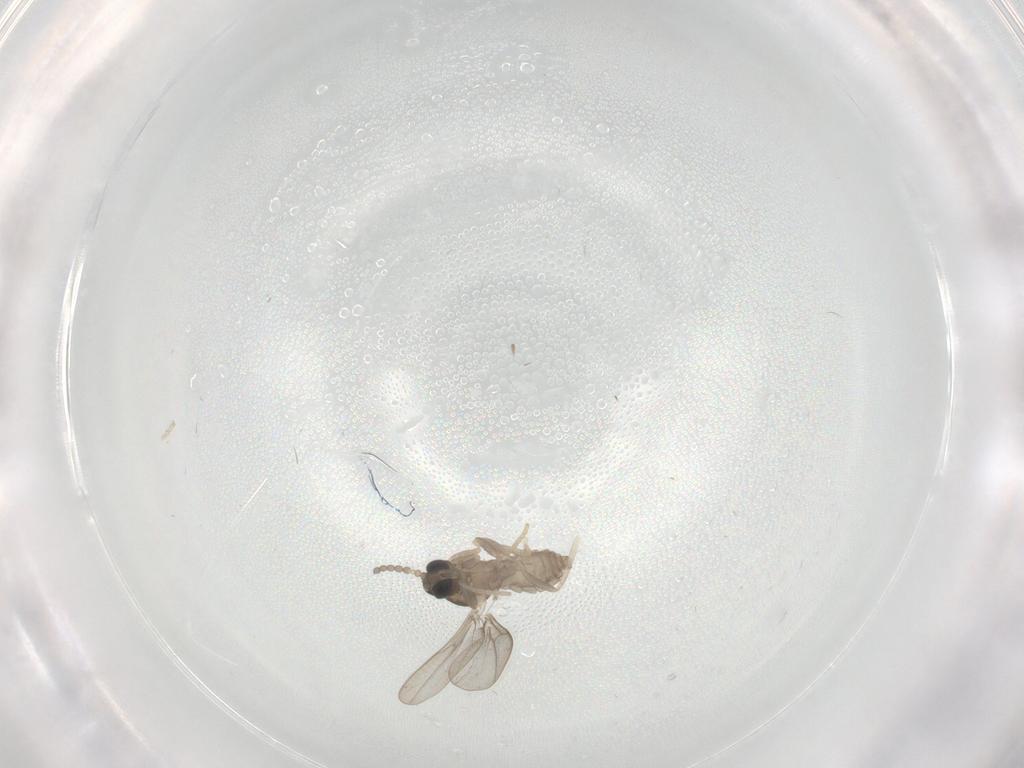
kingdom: Animalia
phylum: Arthropoda
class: Insecta
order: Diptera
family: Cecidomyiidae
